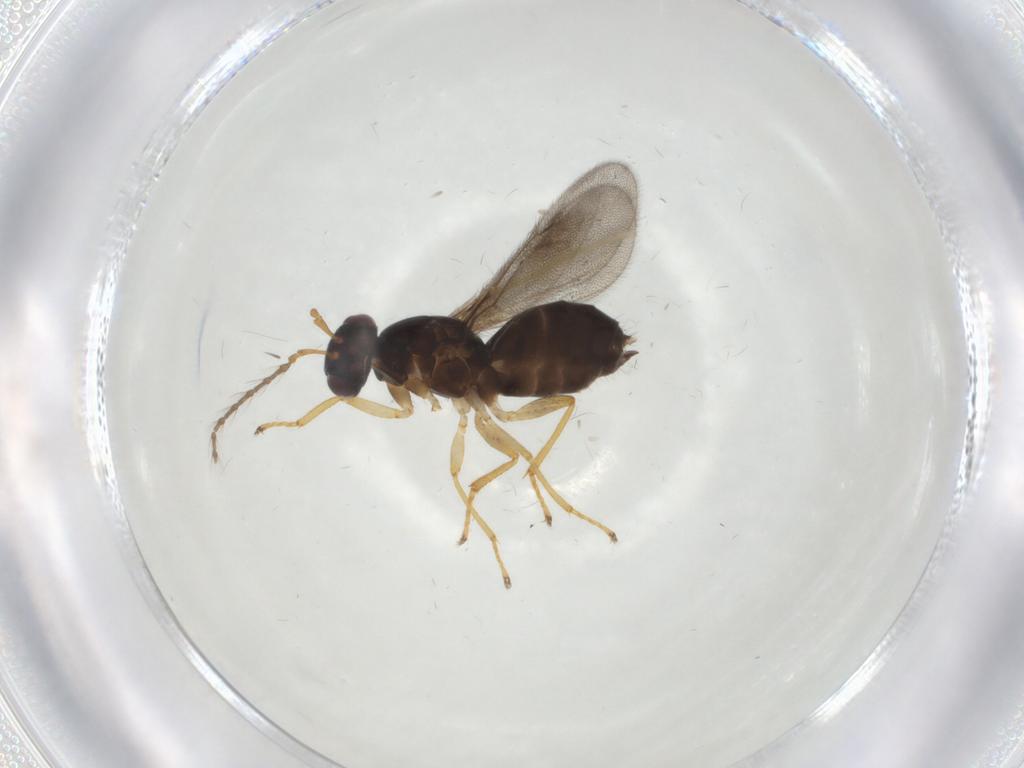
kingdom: Animalia
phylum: Arthropoda
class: Insecta
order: Hymenoptera
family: Eulophidae
